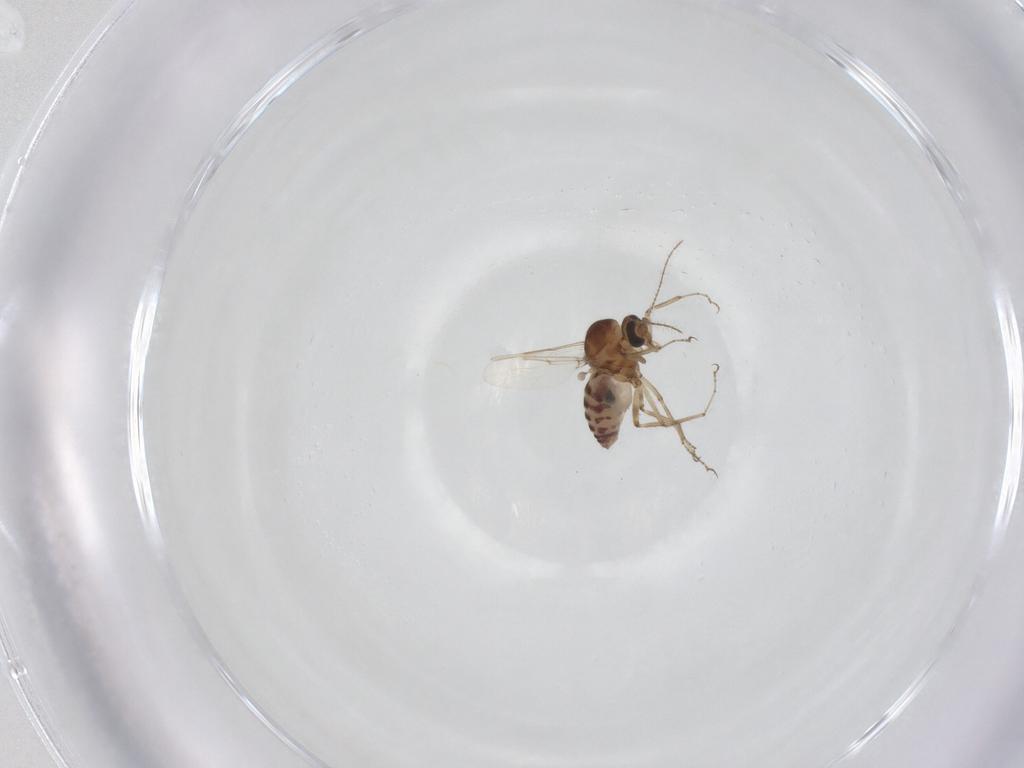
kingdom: Animalia
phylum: Arthropoda
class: Insecta
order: Diptera
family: Ceratopogonidae
